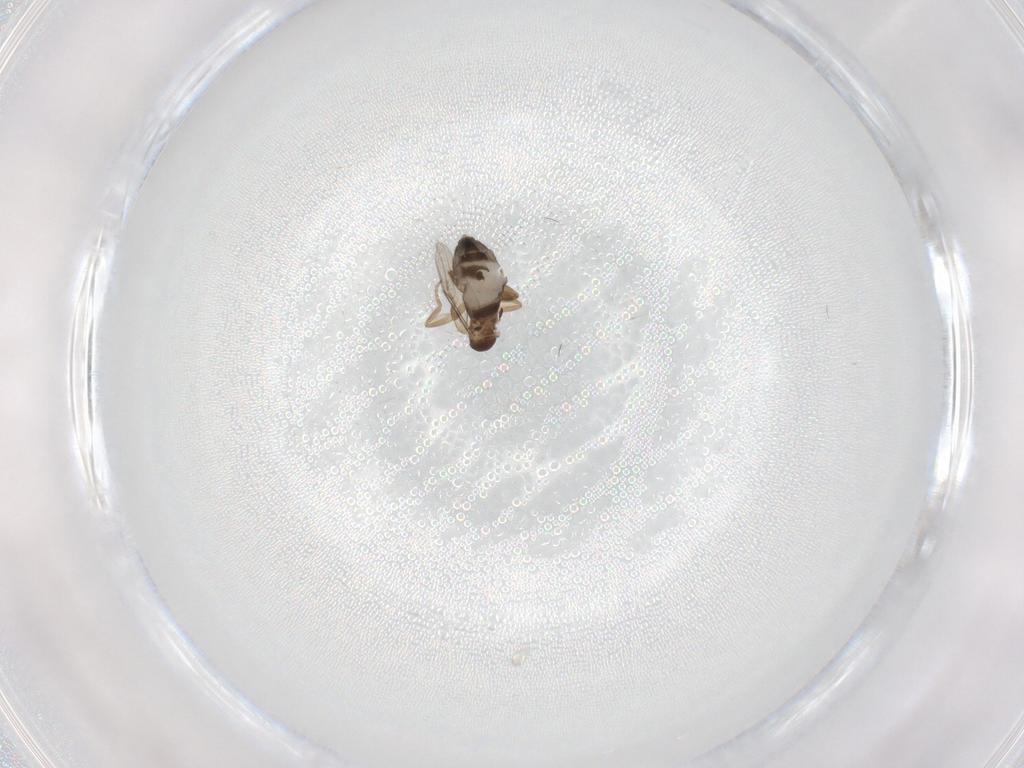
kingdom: Animalia
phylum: Arthropoda
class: Insecta
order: Diptera
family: Phoridae
